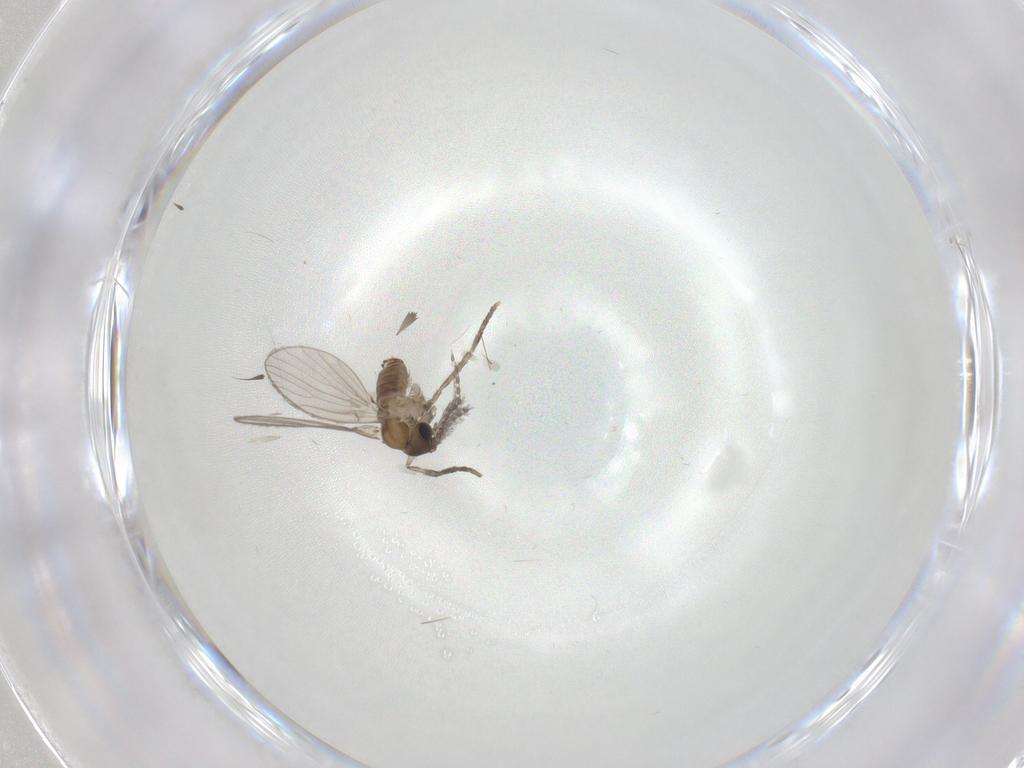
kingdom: Animalia
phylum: Arthropoda
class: Insecta
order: Diptera
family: Psychodidae
